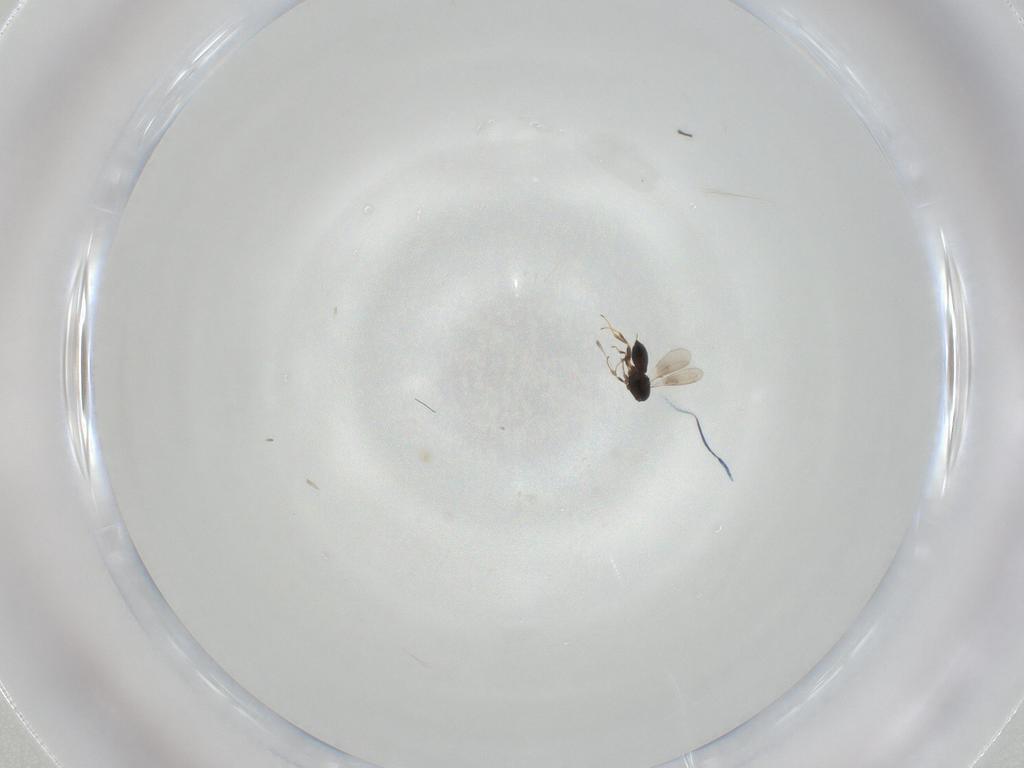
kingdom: Animalia
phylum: Arthropoda
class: Insecta
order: Hymenoptera
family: Scelionidae
